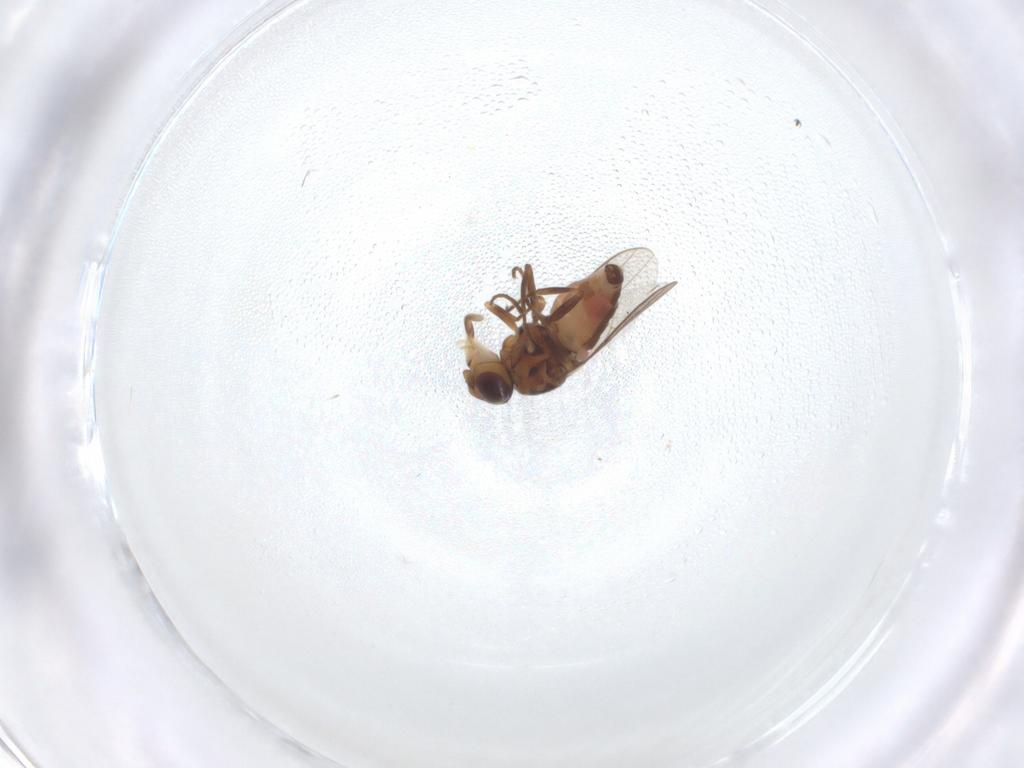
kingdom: Animalia
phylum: Arthropoda
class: Insecta
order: Diptera
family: Chloropidae
